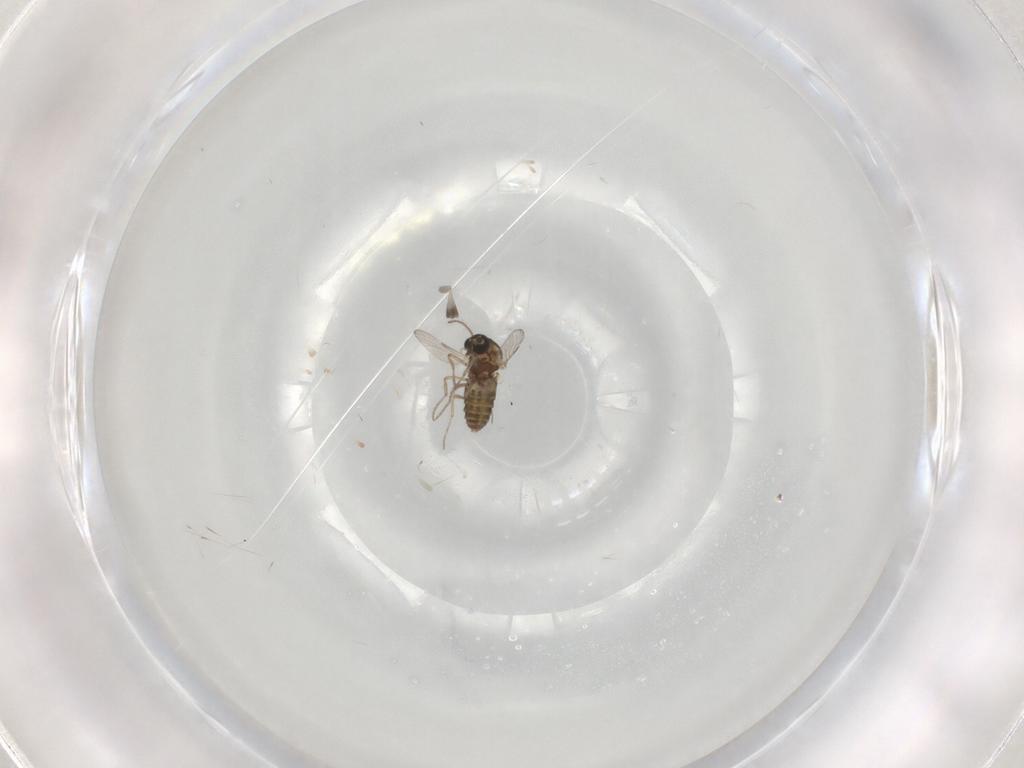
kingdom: Animalia
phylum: Arthropoda
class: Insecta
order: Diptera
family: Ceratopogonidae
